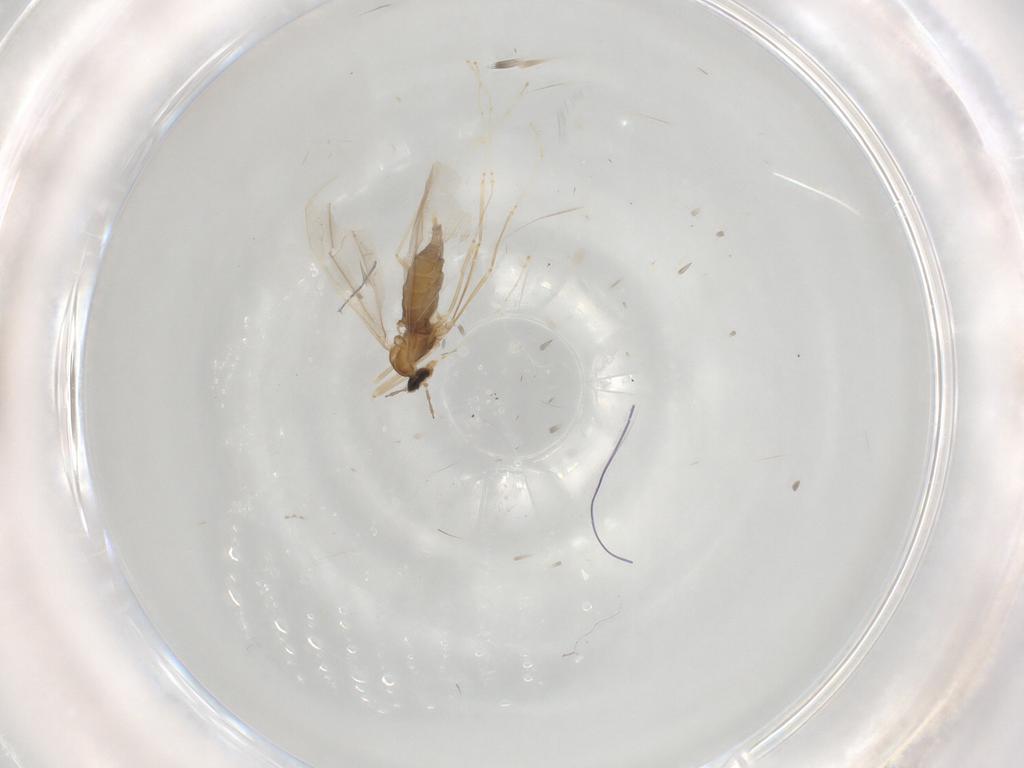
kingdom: Animalia
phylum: Arthropoda
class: Insecta
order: Diptera
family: Cecidomyiidae
